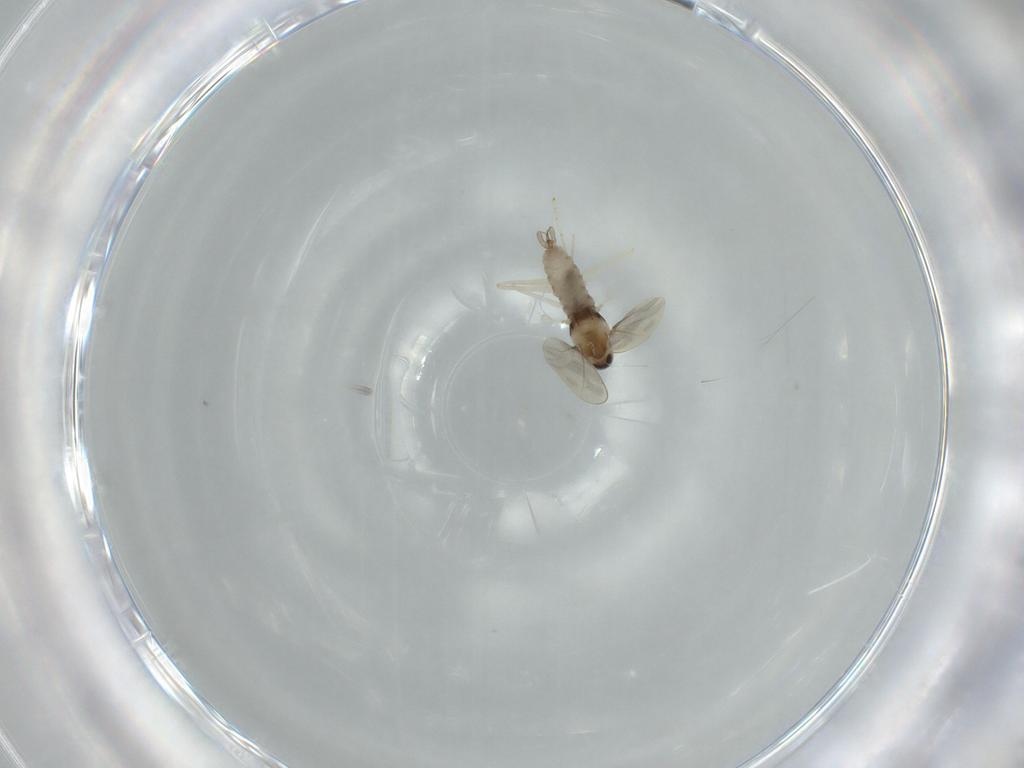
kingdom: Animalia
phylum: Arthropoda
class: Insecta
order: Diptera
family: Cecidomyiidae
